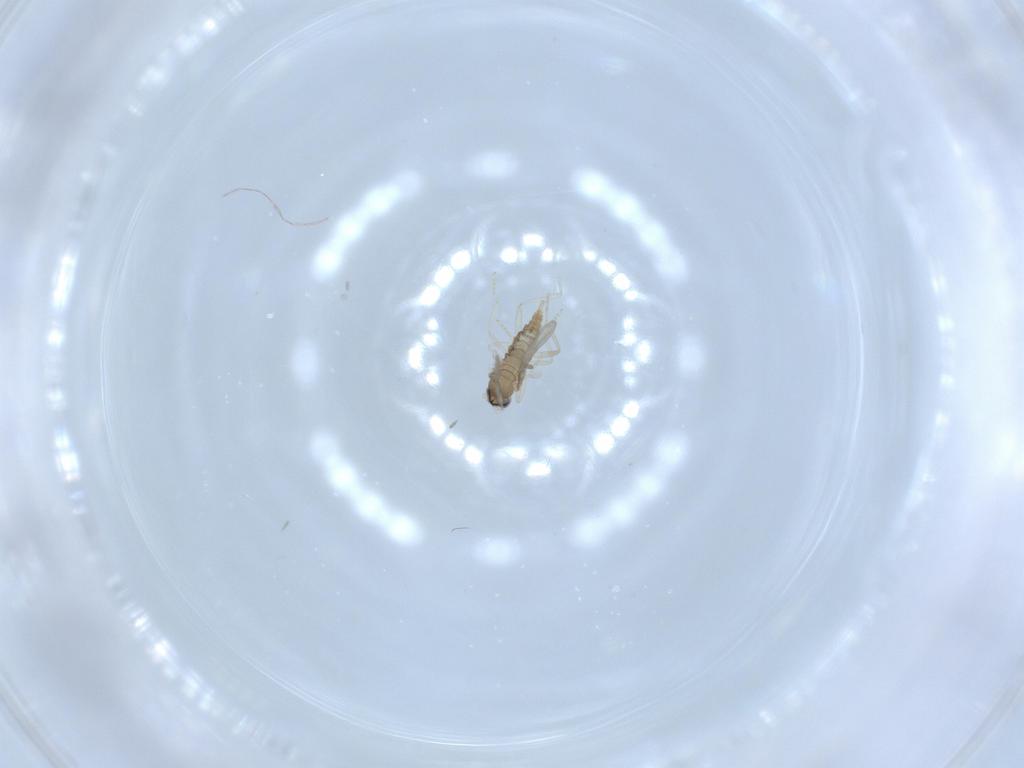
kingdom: Animalia
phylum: Arthropoda
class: Insecta
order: Diptera
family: Cecidomyiidae
